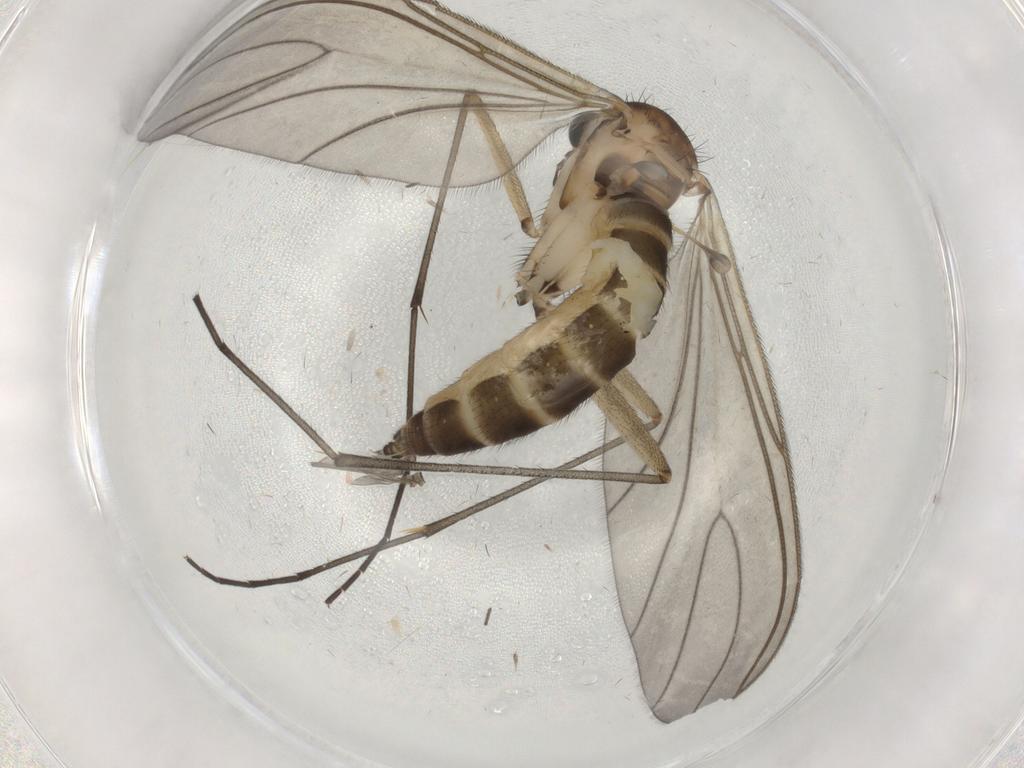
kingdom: Animalia
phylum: Arthropoda
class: Insecta
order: Diptera
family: Sciaridae
